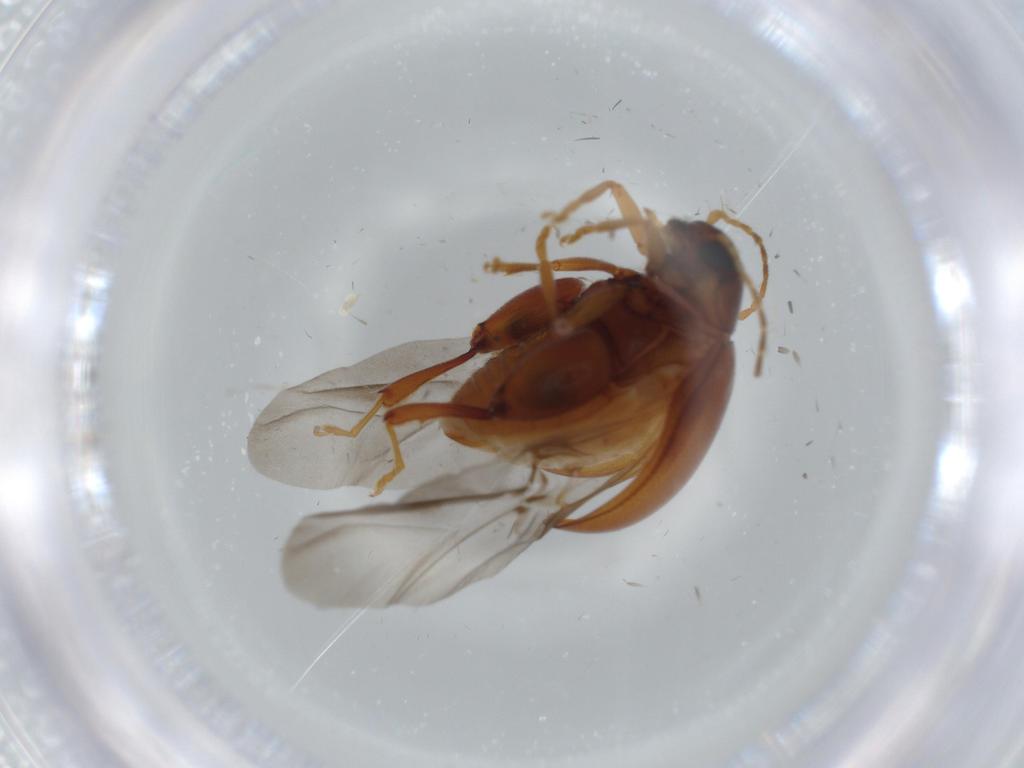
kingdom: Animalia
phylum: Arthropoda
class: Insecta
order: Coleoptera
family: Chrysomelidae
